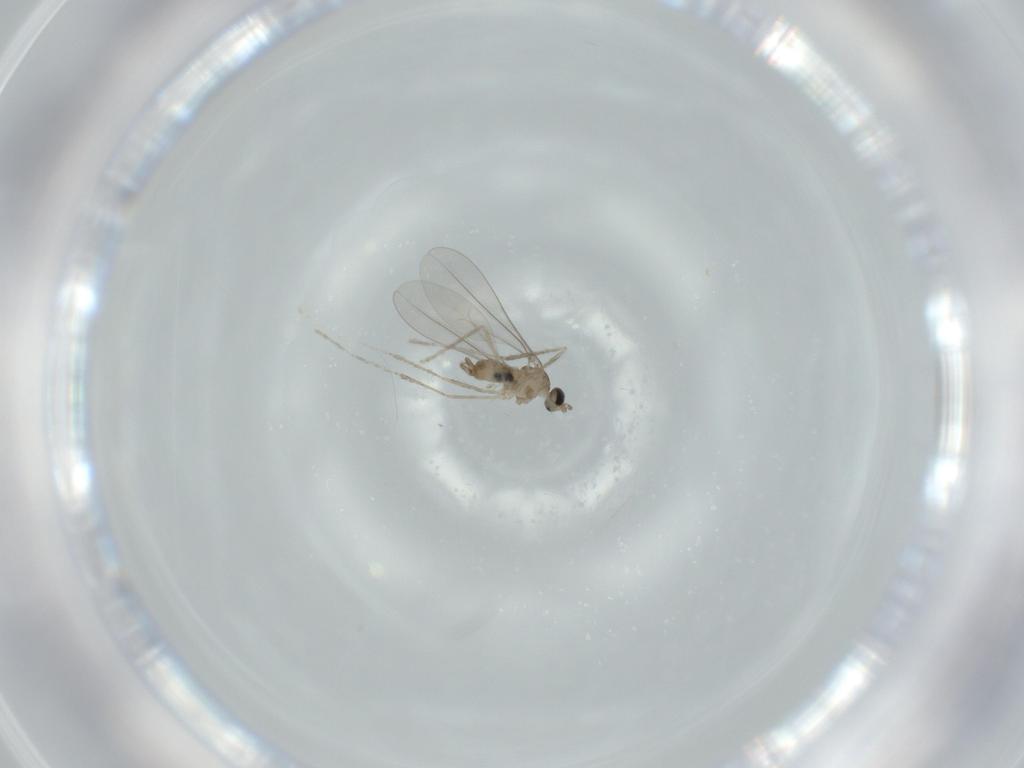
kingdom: Animalia
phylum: Arthropoda
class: Insecta
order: Diptera
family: Cecidomyiidae
